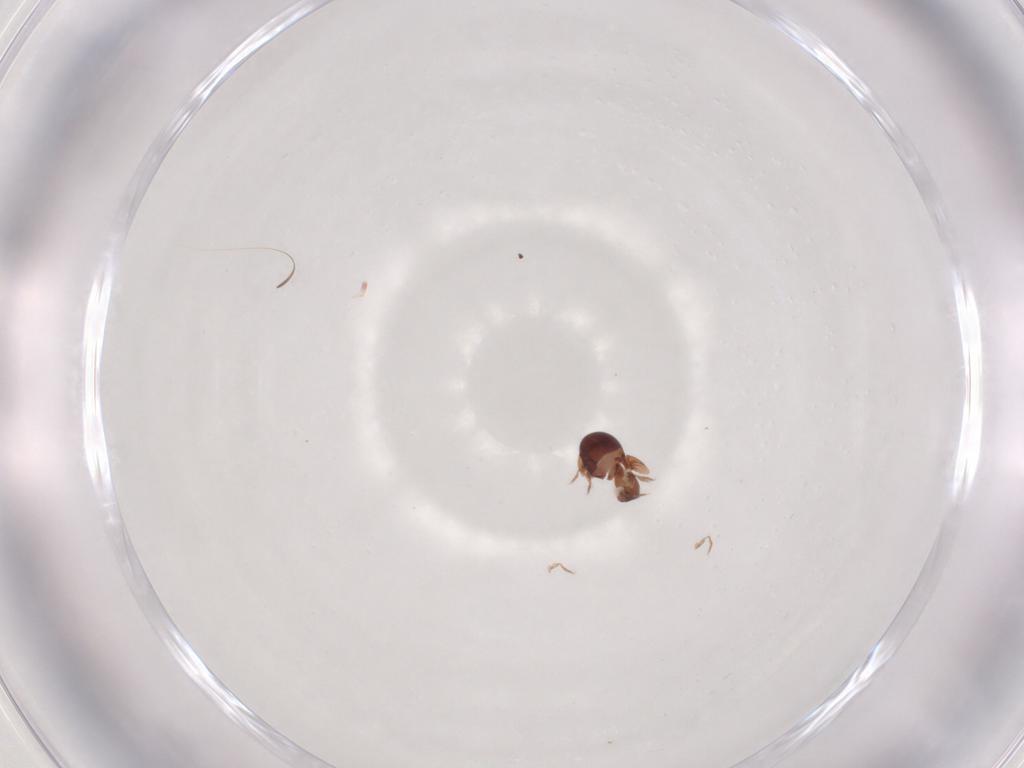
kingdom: Animalia
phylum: Arthropoda
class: Arachnida
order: Sarcoptiformes
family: Galumnidae
